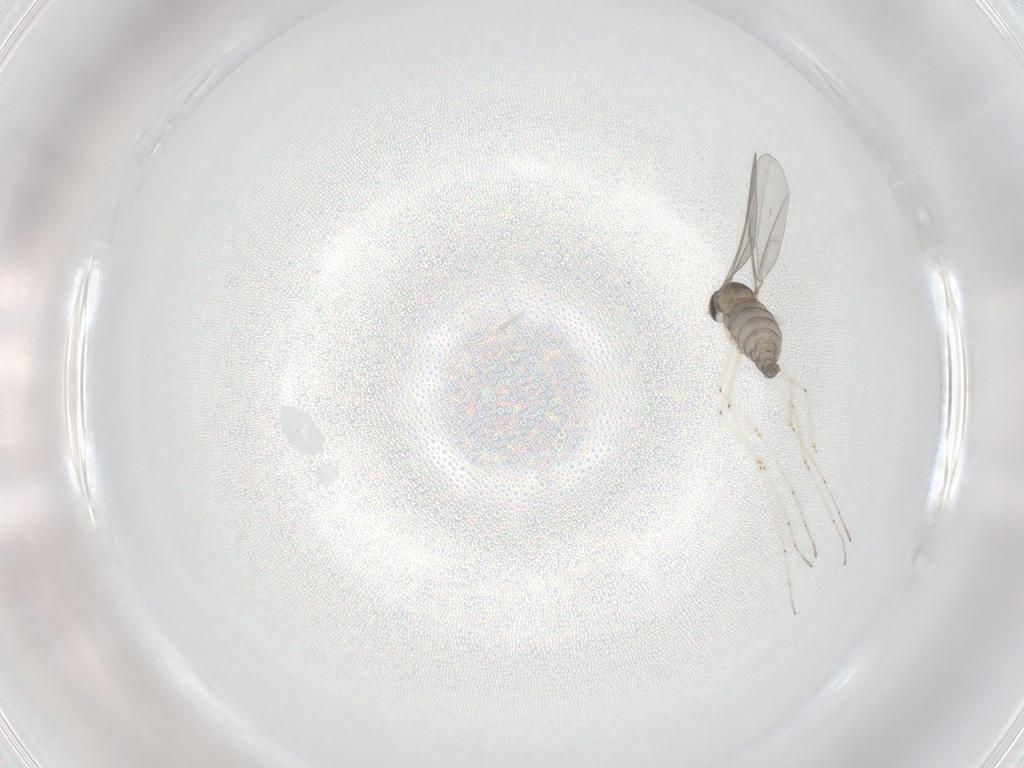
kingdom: Animalia
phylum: Arthropoda
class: Insecta
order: Diptera
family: Cecidomyiidae
